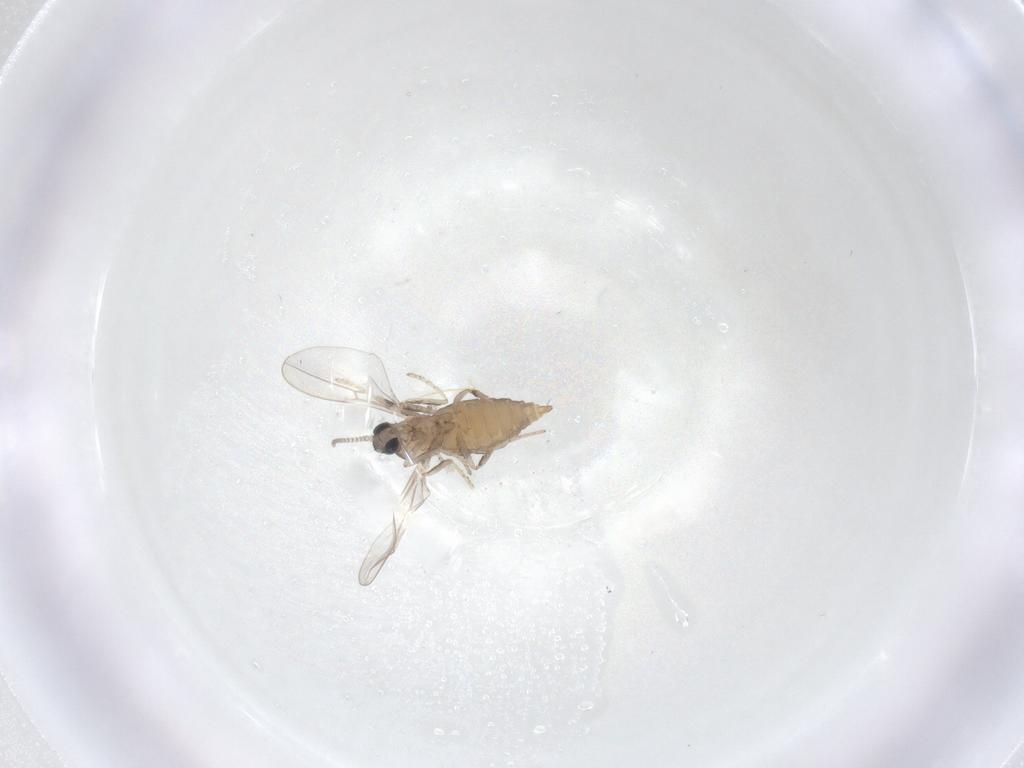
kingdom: Animalia
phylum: Arthropoda
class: Insecta
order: Diptera
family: Cecidomyiidae
